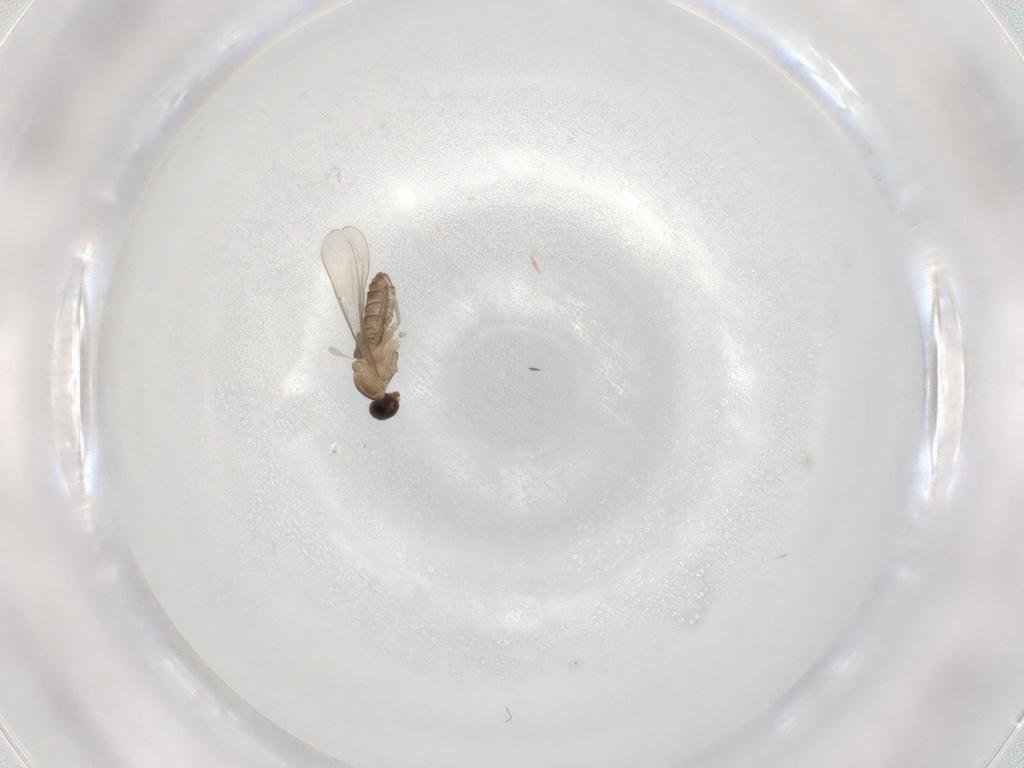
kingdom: Animalia
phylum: Arthropoda
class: Insecta
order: Diptera
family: Cecidomyiidae
